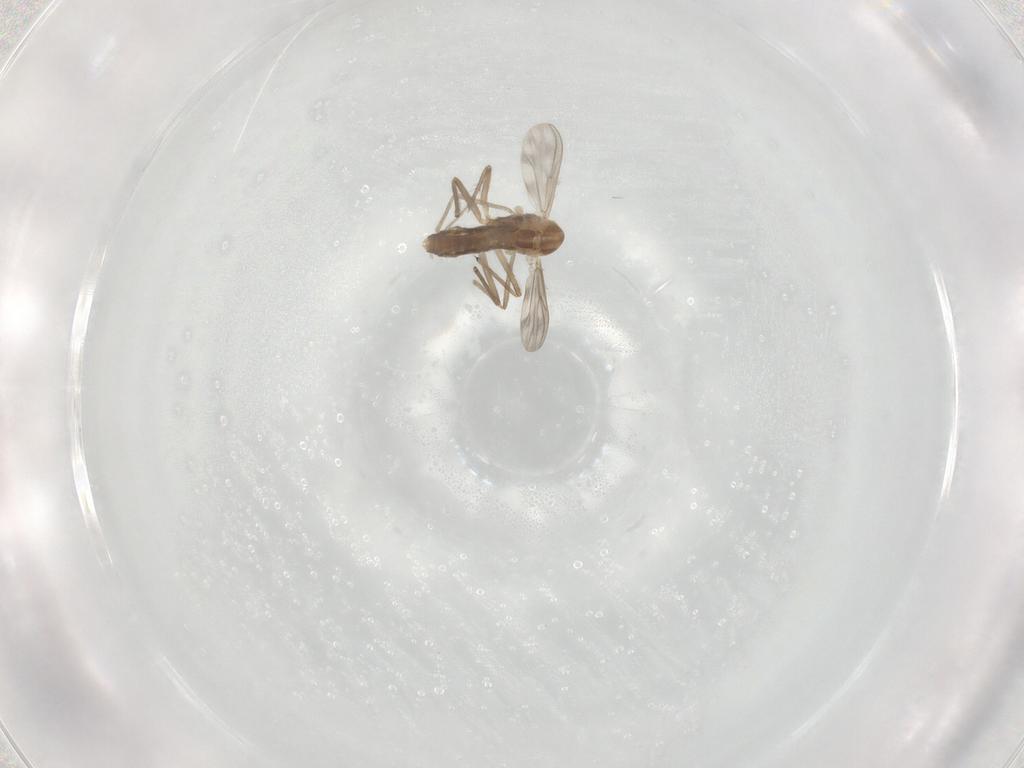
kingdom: Animalia
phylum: Arthropoda
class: Insecta
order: Diptera
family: Chironomidae
